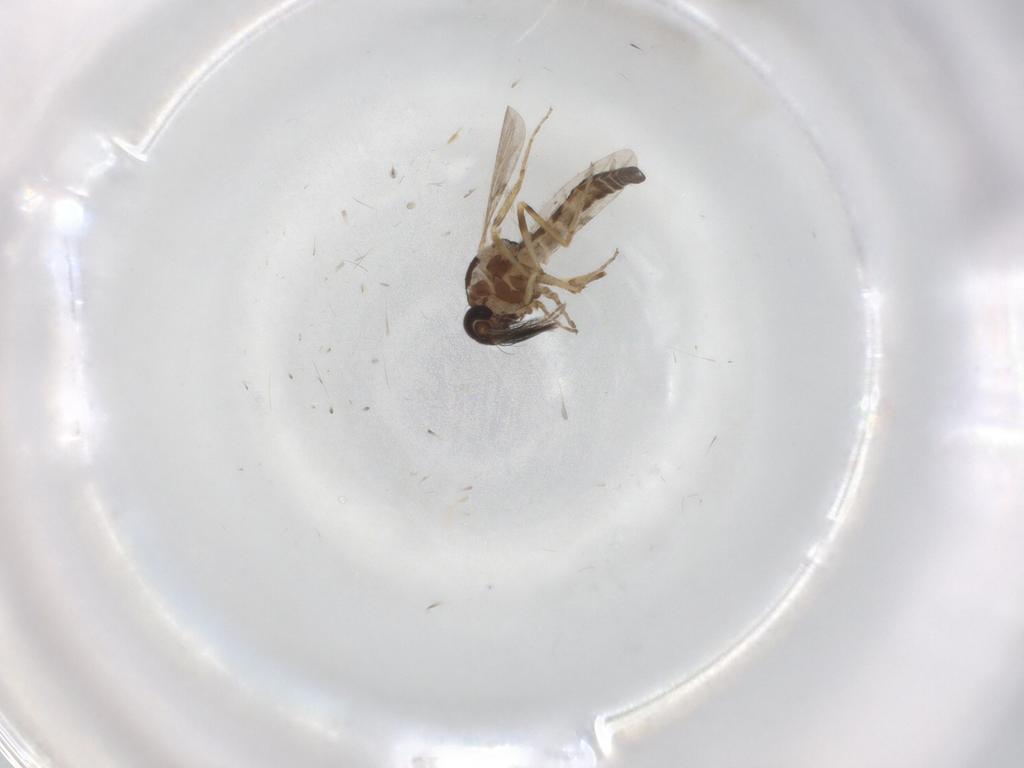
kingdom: Animalia
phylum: Arthropoda
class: Insecta
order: Diptera
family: Ceratopogonidae
